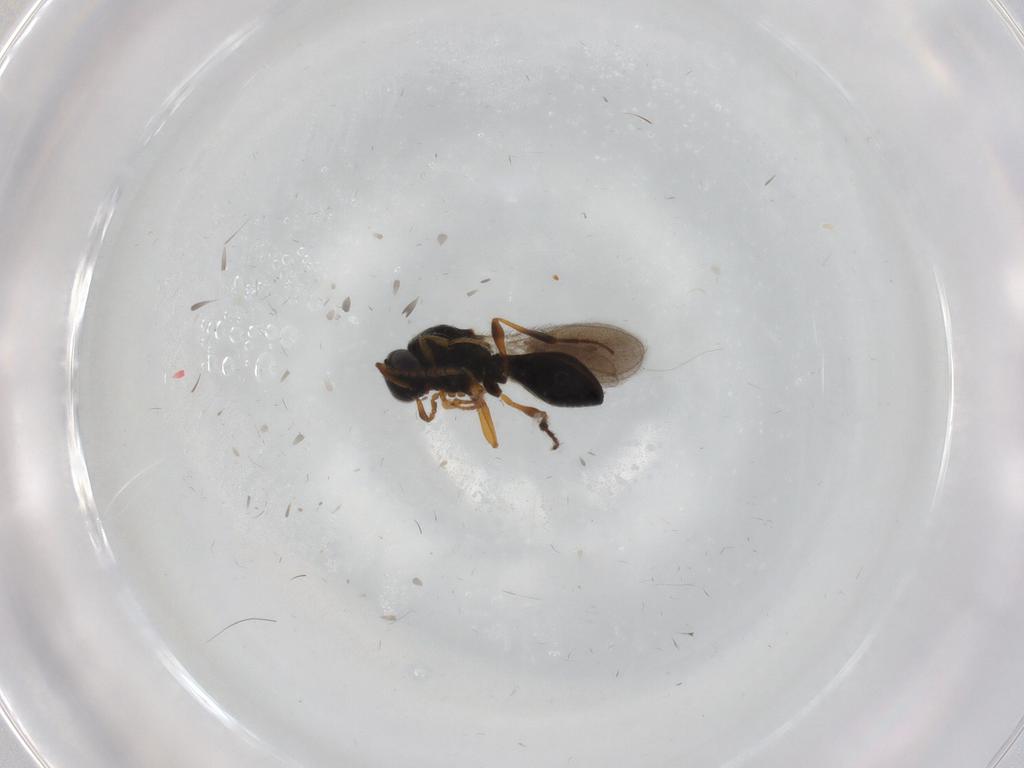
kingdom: Animalia
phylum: Arthropoda
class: Insecta
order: Hymenoptera
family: Platygastridae
